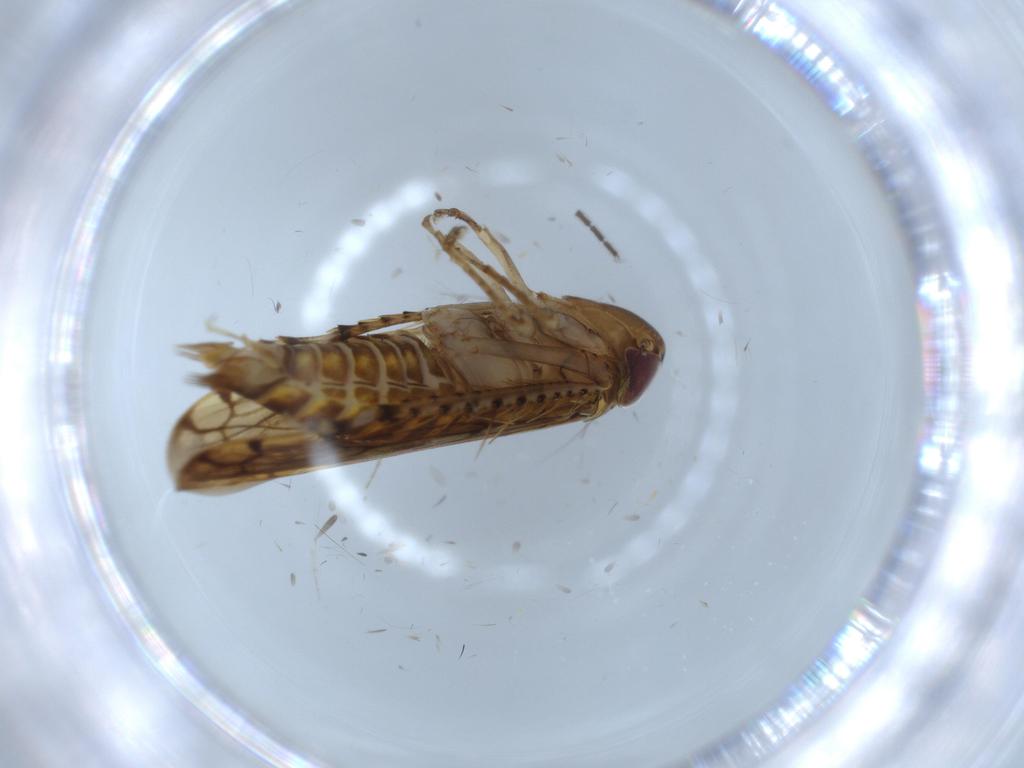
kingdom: Animalia
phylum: Arthropoda
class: Insecta
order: Hemiptera
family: Cicadellidae
